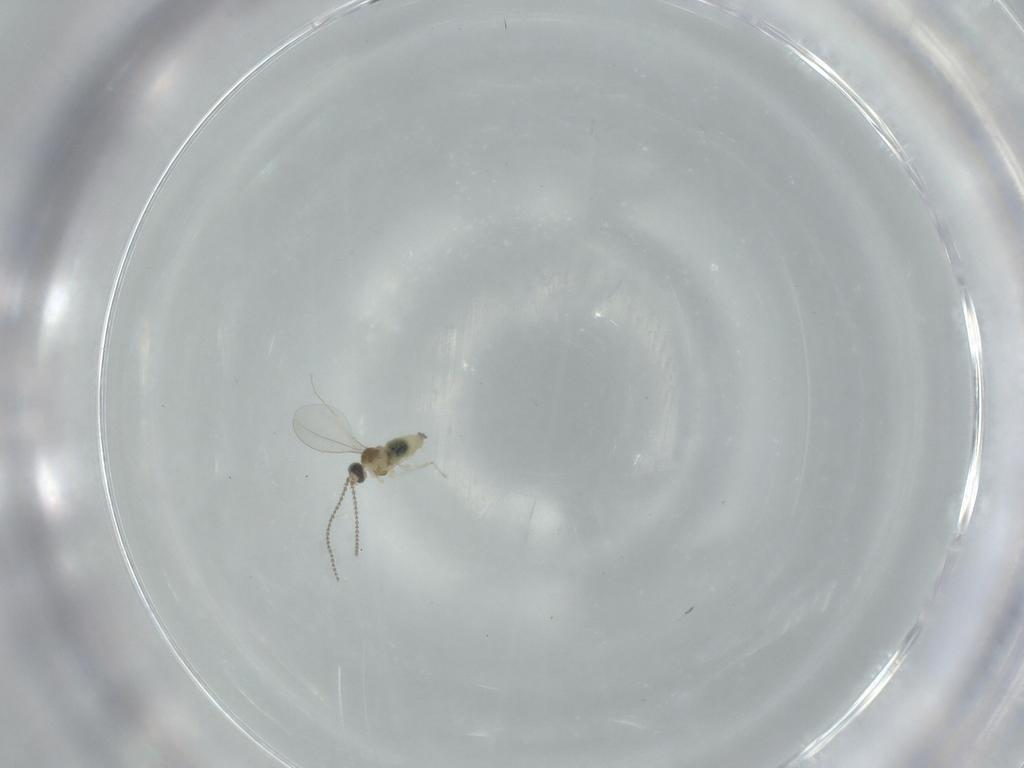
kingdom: Animalia
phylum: Arthropoda
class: Insecta
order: Diptera
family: Cecidomyiidae
